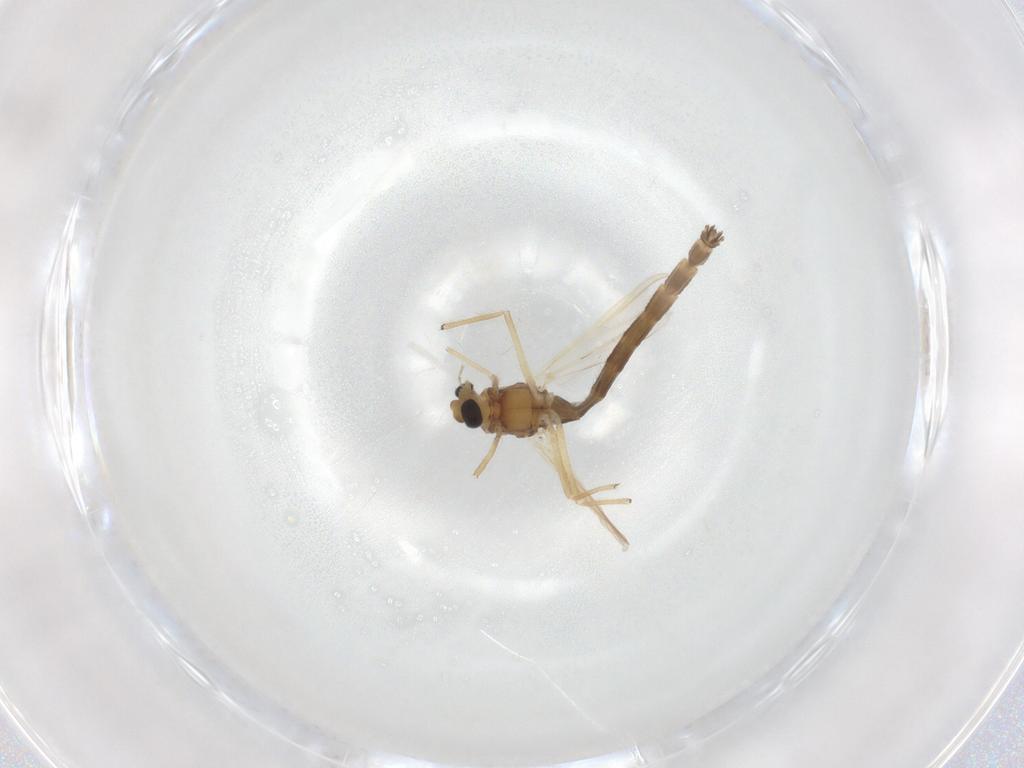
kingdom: Animalia
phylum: Arthropoda
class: Insecta
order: Diptera
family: Chironomidae
